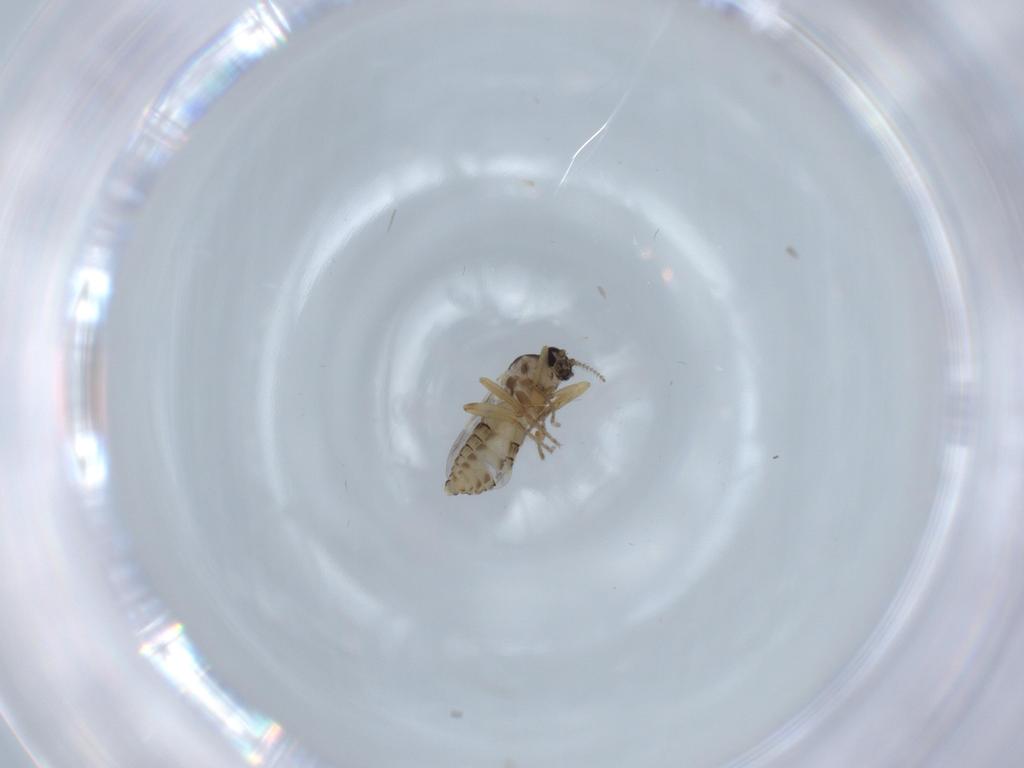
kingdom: Animalia
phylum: Arthropoda
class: Insecta
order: Diptera
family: Ceratopogonidae
